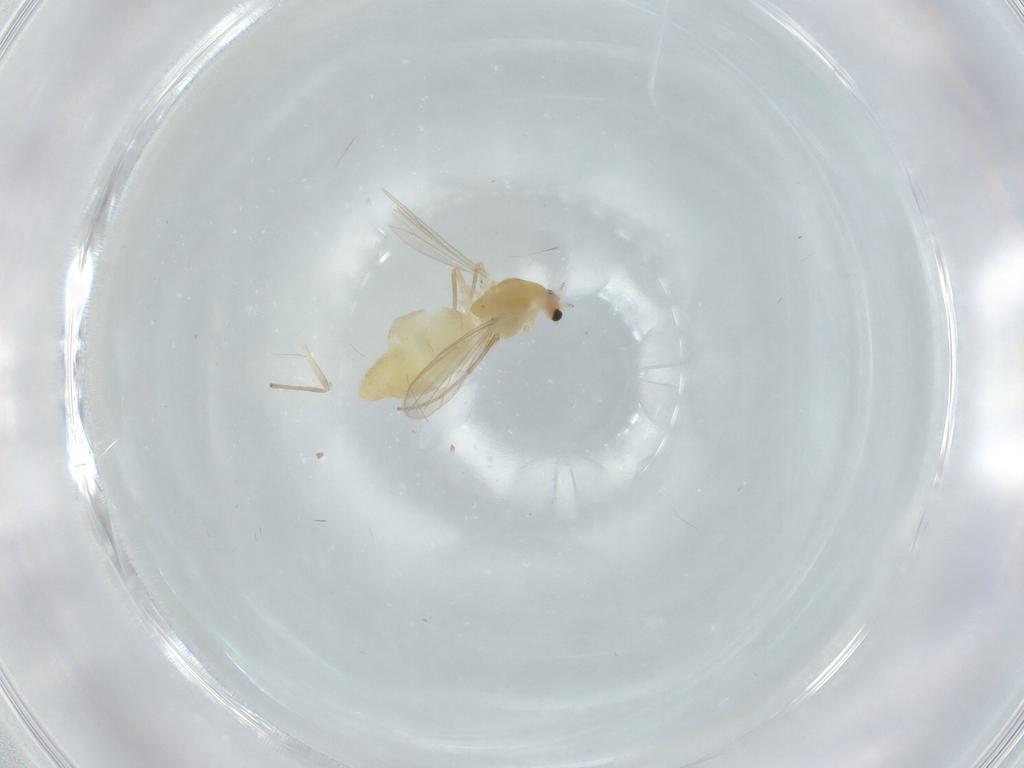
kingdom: Animalia
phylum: Arthropoda
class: Insecta
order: Diptera
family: Chironomidae
